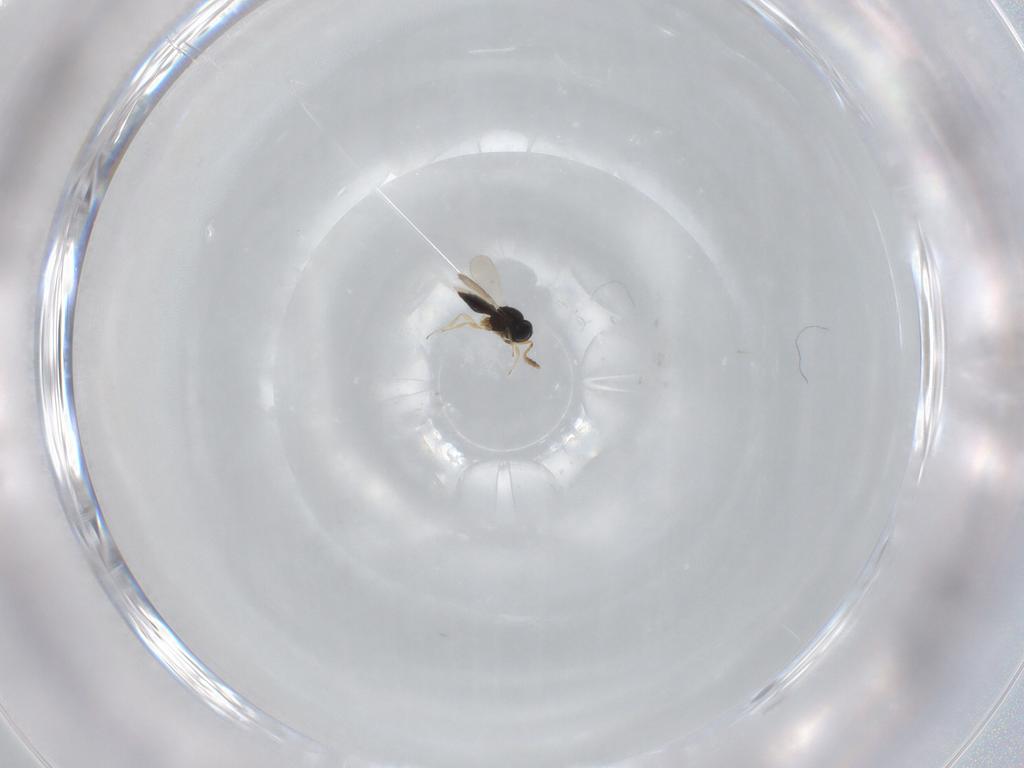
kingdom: Animalia
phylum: Arthropoda
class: Insecta
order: Hymenoptera
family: Scelionidae
